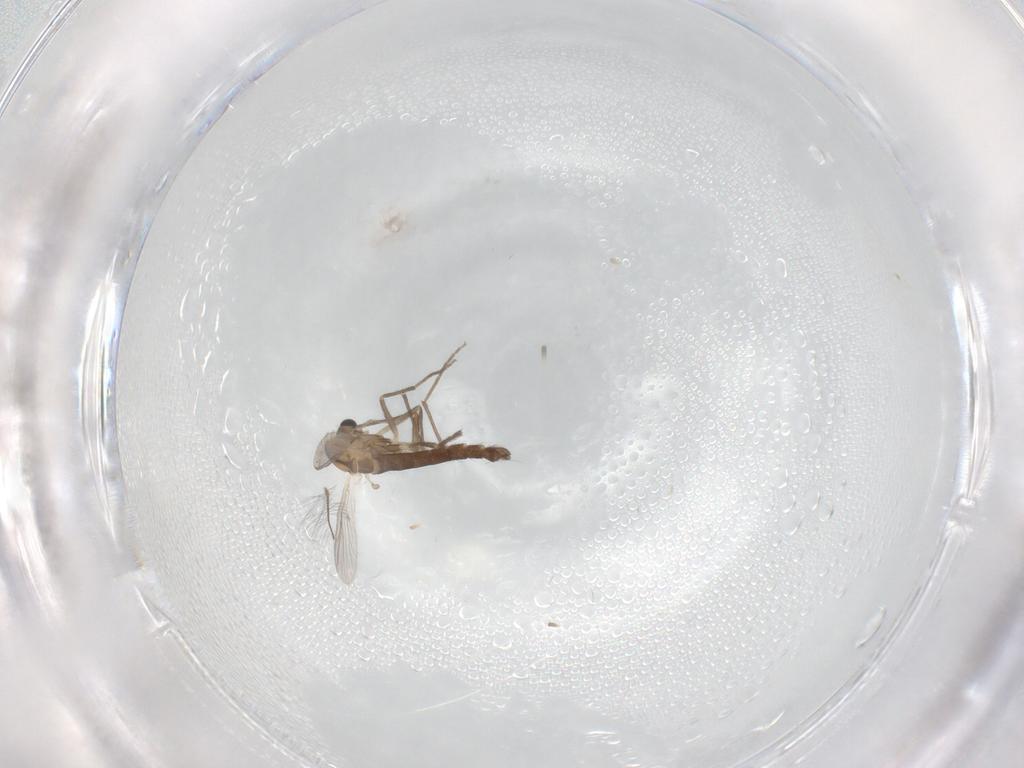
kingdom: Animalia
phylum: Arthropoda
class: Insecta
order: Diptera
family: Chironomidae
